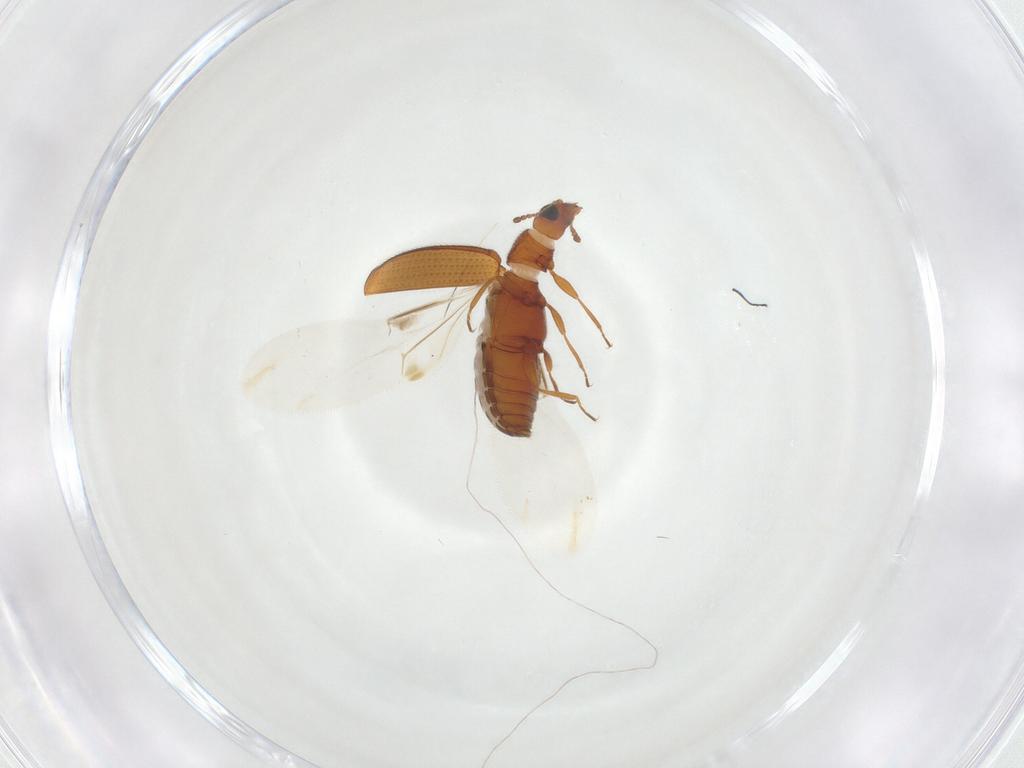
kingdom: Animalia
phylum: Arthropoda
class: Insecta
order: Coleoptera
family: Latridiidae
